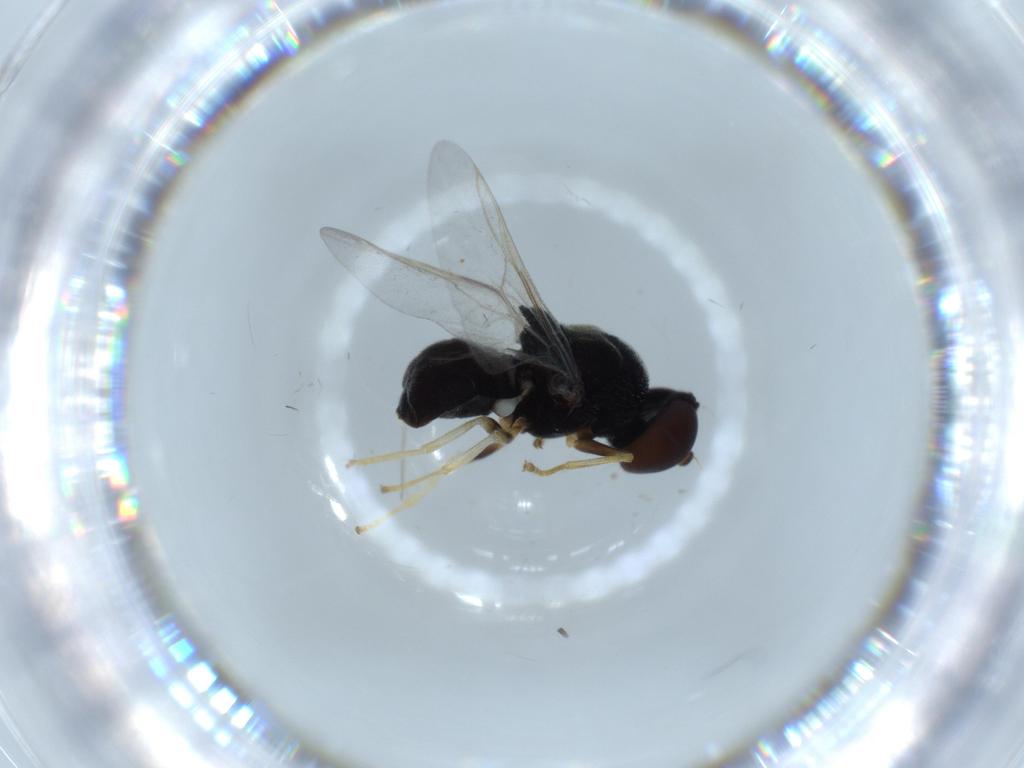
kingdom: Animalia
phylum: Arthropoda
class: Insecta
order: Diptera
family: Stratiomyidae
